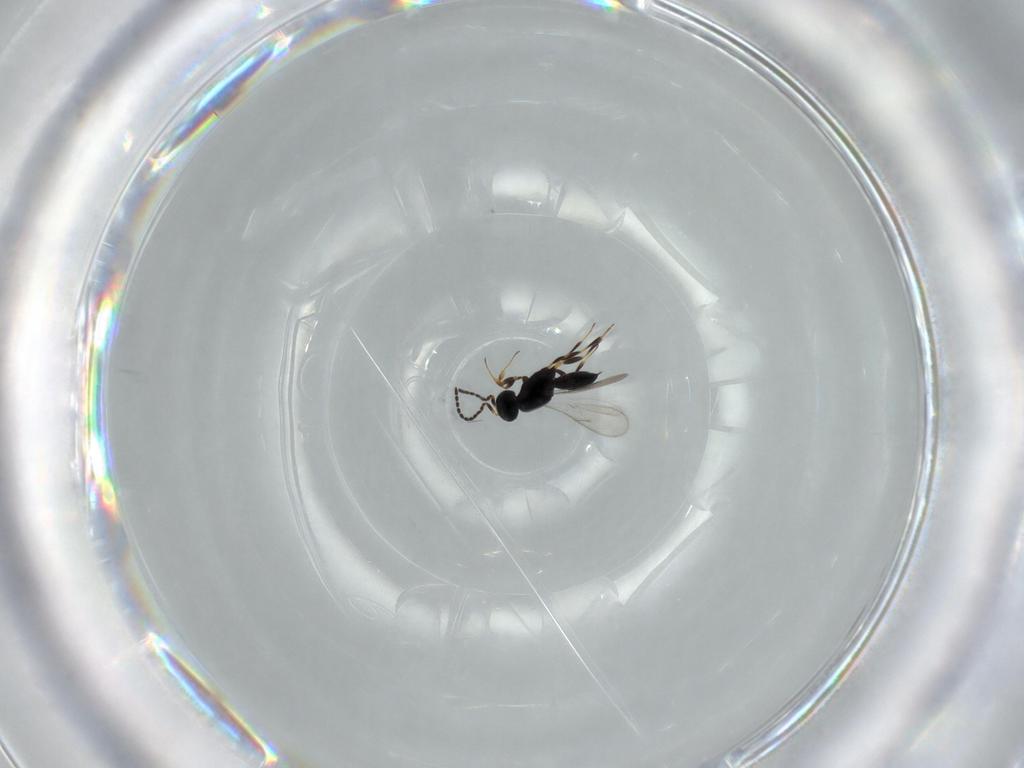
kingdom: Animalia
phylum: Arthropoda
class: Insecta
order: Hymenoptera
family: Scelionidae
